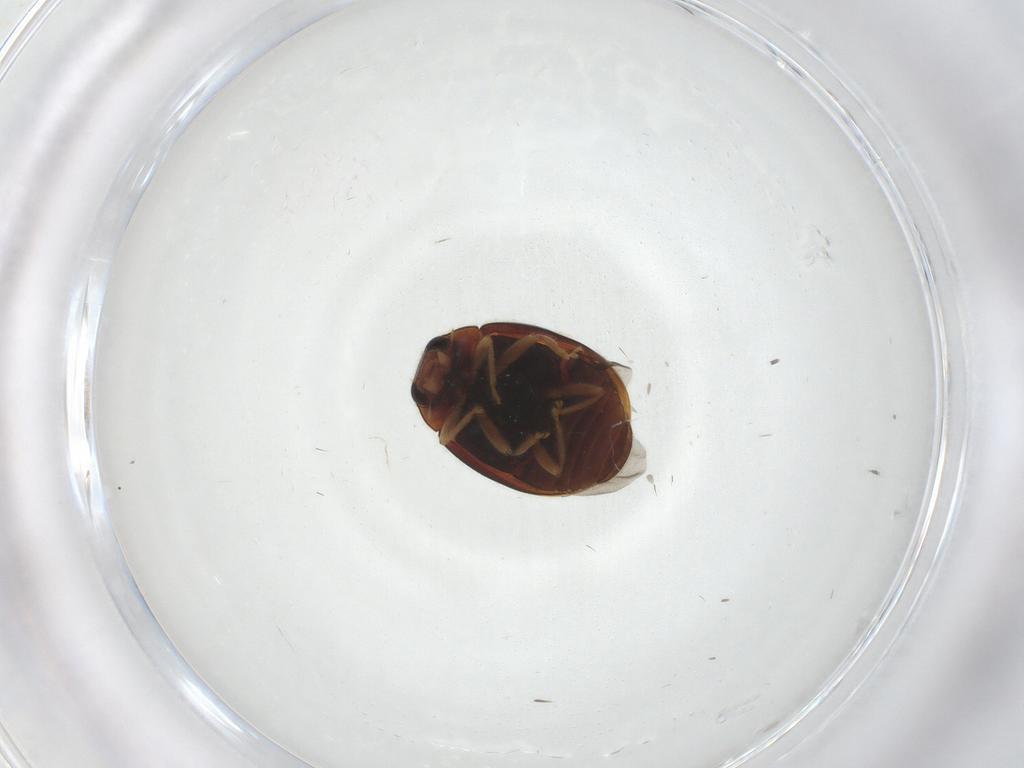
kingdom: Animalia
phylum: Arthropoda
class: Insecta
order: Coleoptera
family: Coccinellidae
